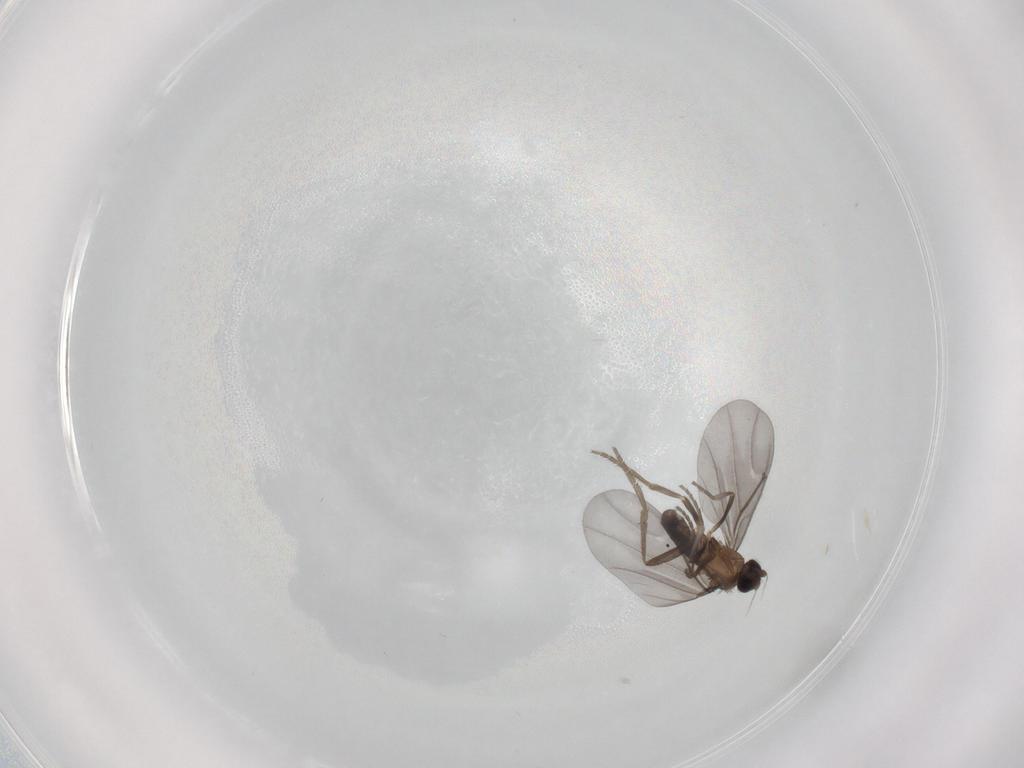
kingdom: Animalia
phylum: Arthropoda
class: Insecta
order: Diptera
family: Phoridae
